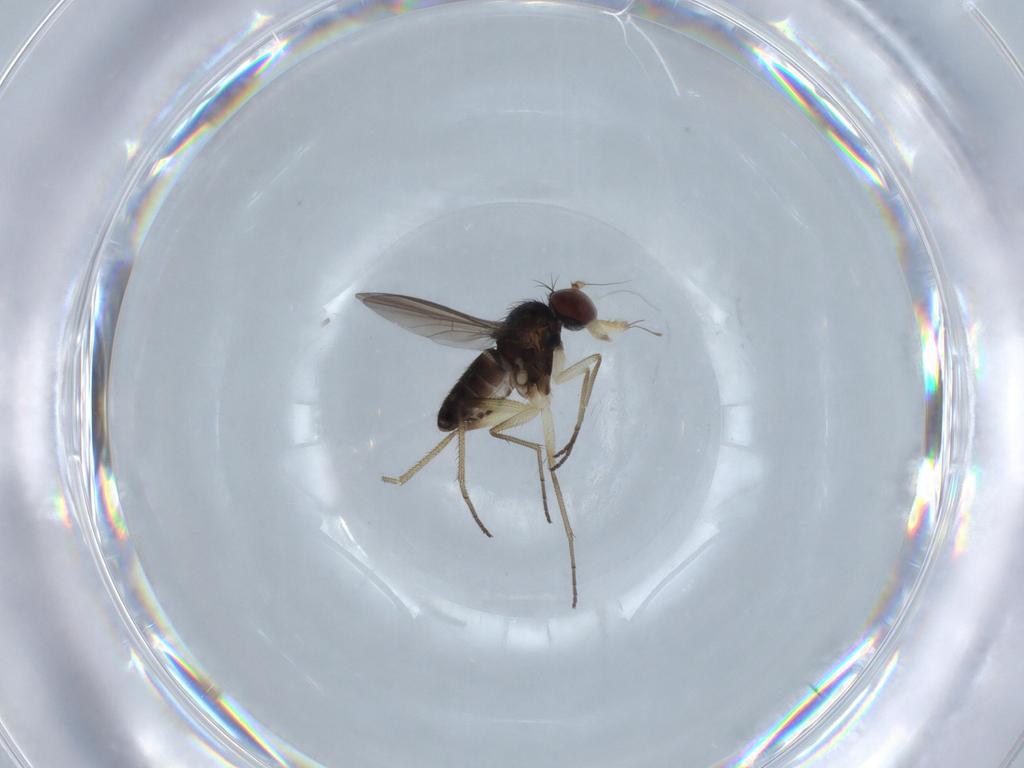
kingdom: Animalia
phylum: Arthropoda
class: Insecta
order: Diptera
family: Dolichopodidae
